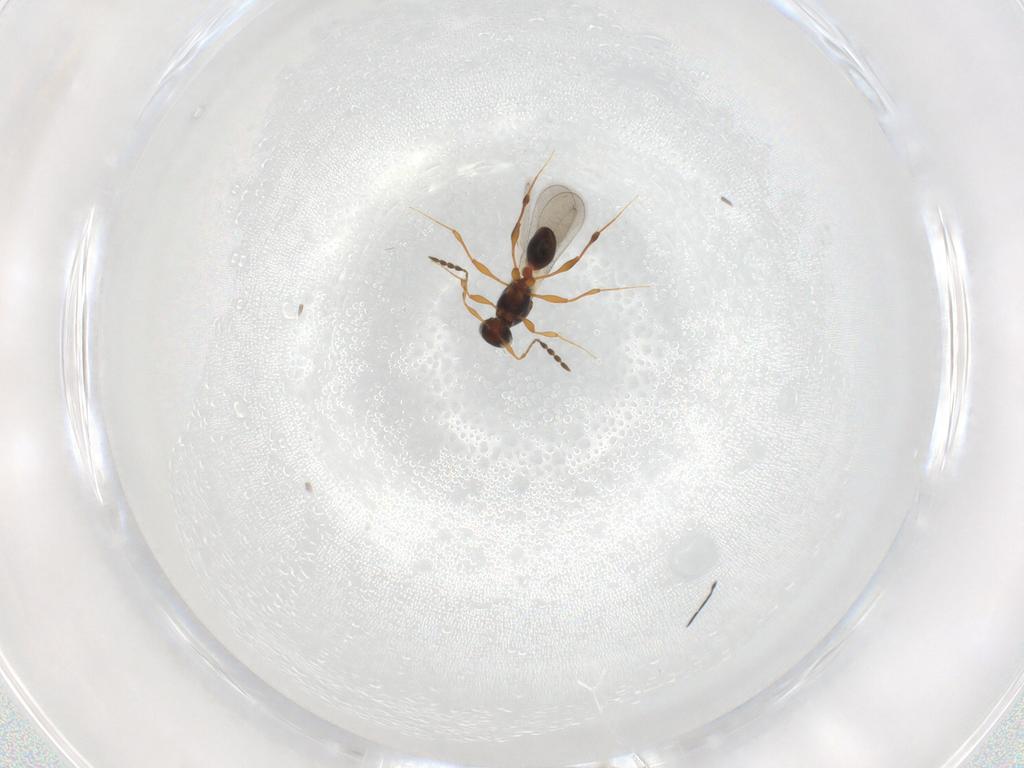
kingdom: Animalia
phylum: Arthropoda
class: Insecta
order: Hymenoptera
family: Platygastridae
